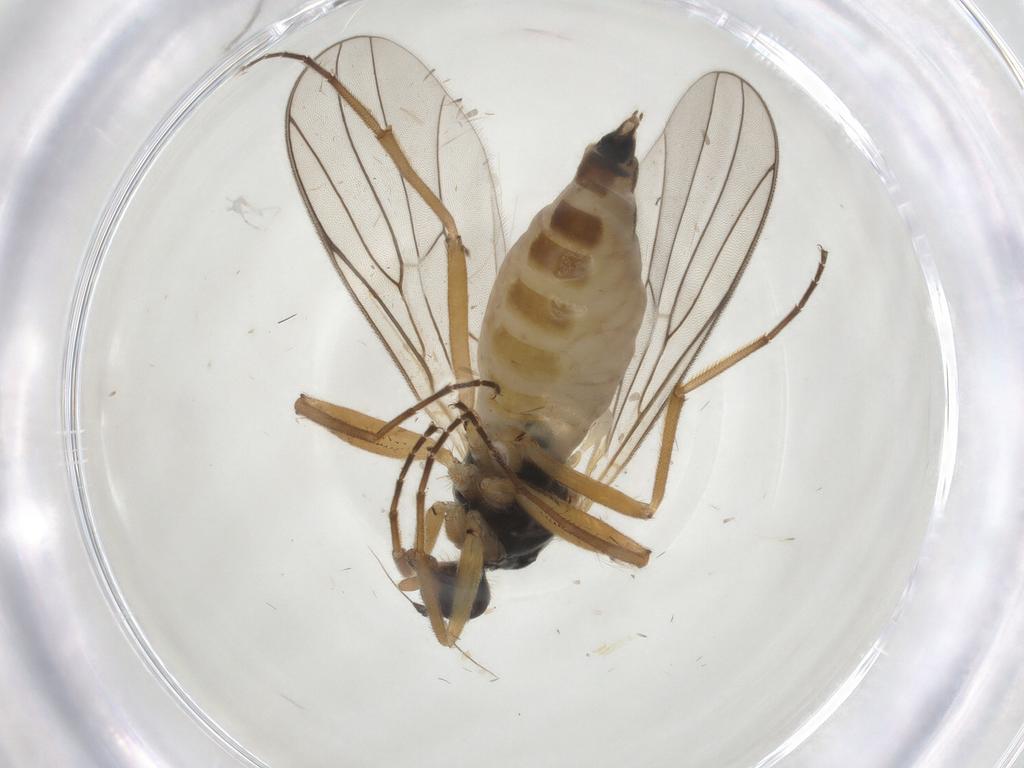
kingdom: Animalia
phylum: Arthropoda
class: Insecta
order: Diptera
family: Hybotidae
